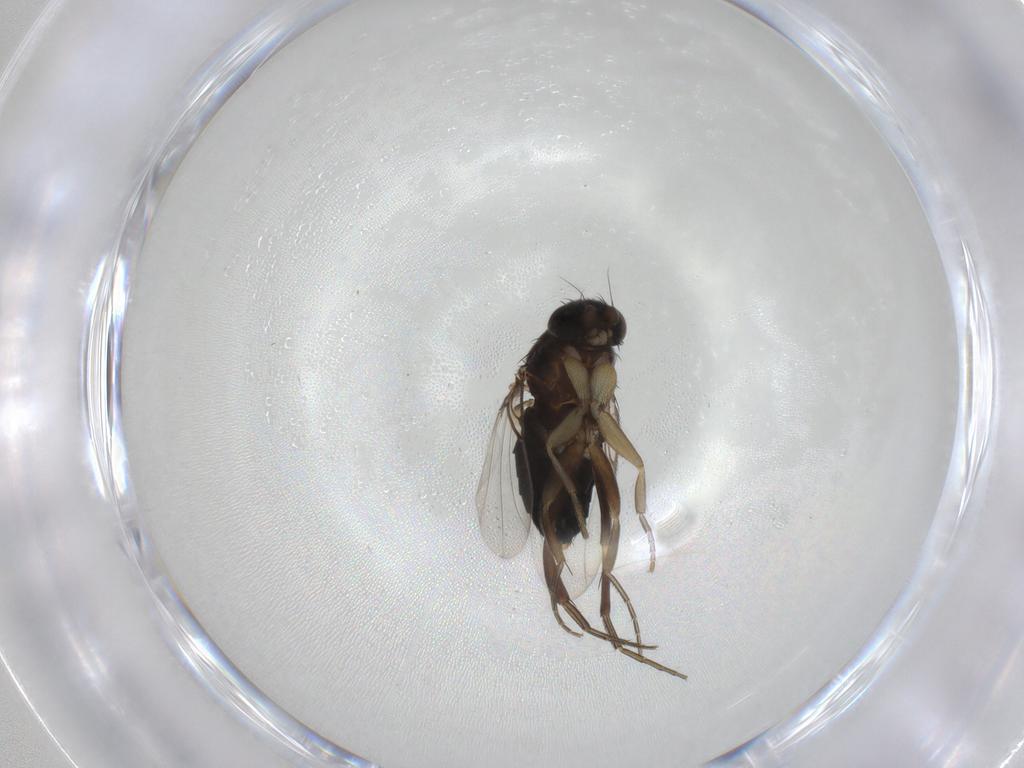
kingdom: Animalia
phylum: Arthropoda
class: Insecta
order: Diptera
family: Phoridae
